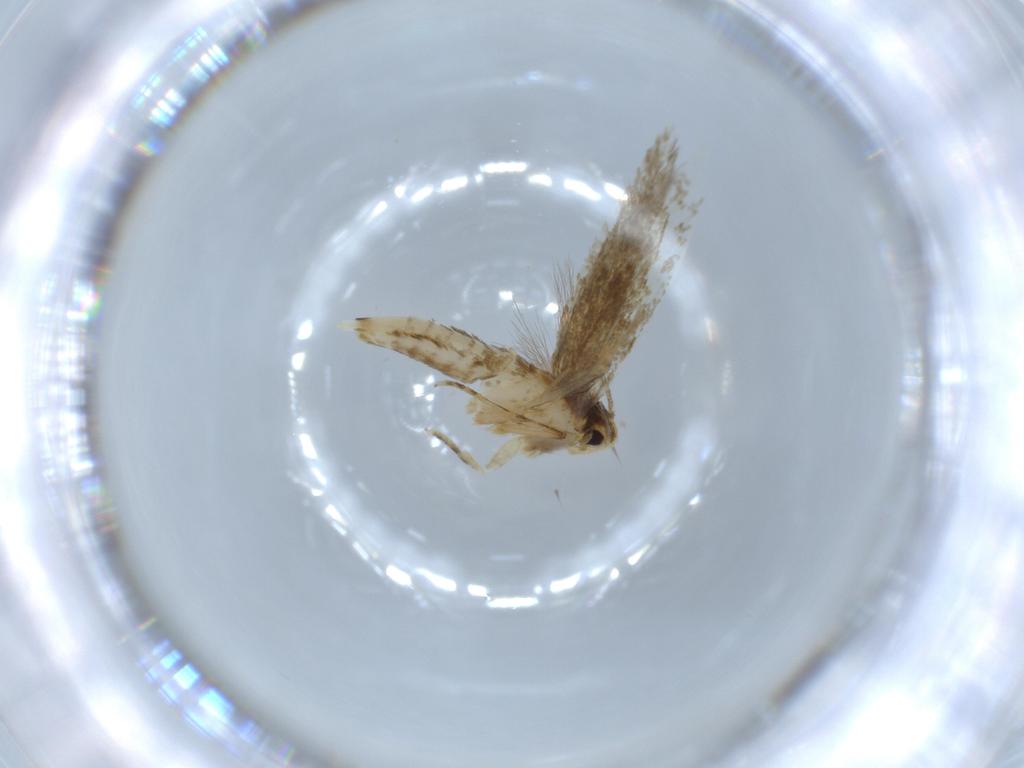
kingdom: Animalia
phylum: Arthropoda
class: Insecta
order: Lepidoptera
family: Tineidae
